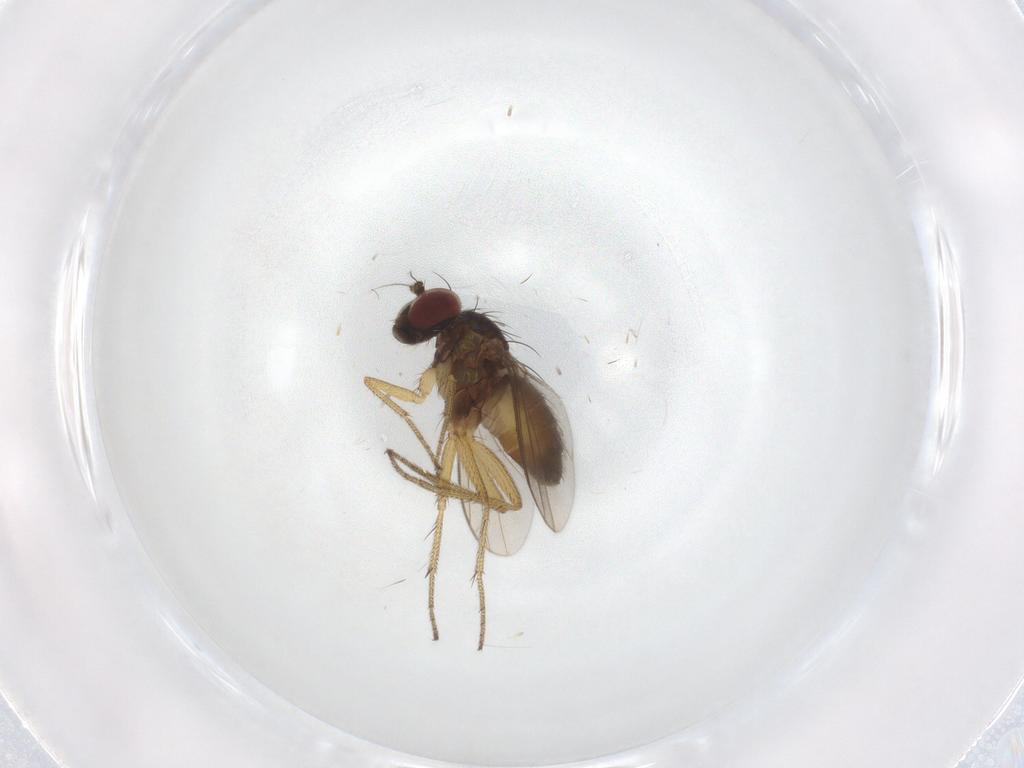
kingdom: Animalia
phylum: Arthropoda
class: Insecta
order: Diptera
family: Dolichopodidae
